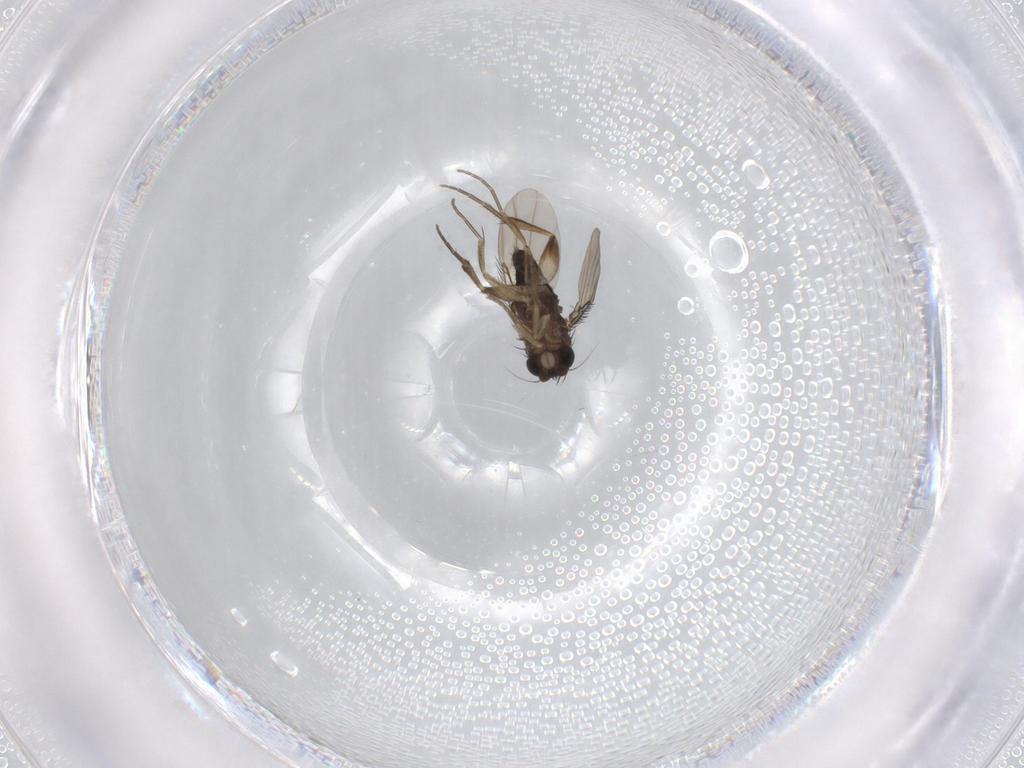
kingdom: Animalia
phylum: Arthropoda
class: Insecta
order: Diptera
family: Phoridae
